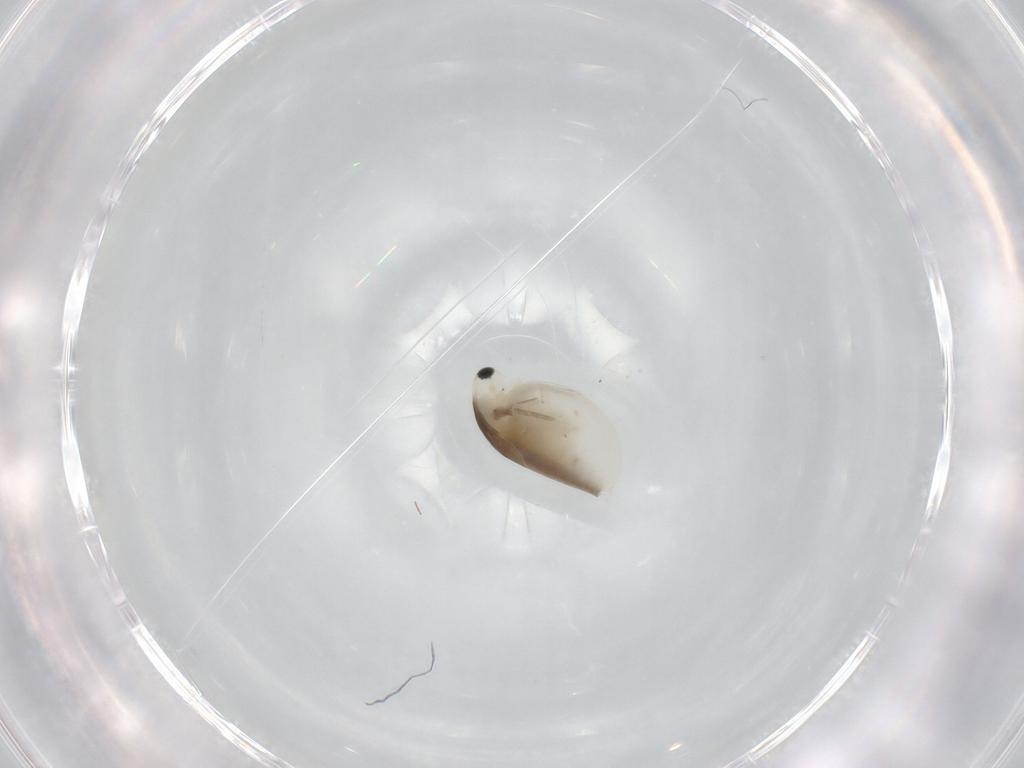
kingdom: Animalia
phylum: Arthropoda
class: Branchiopoda
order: Diplostraca
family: Daphniidae
